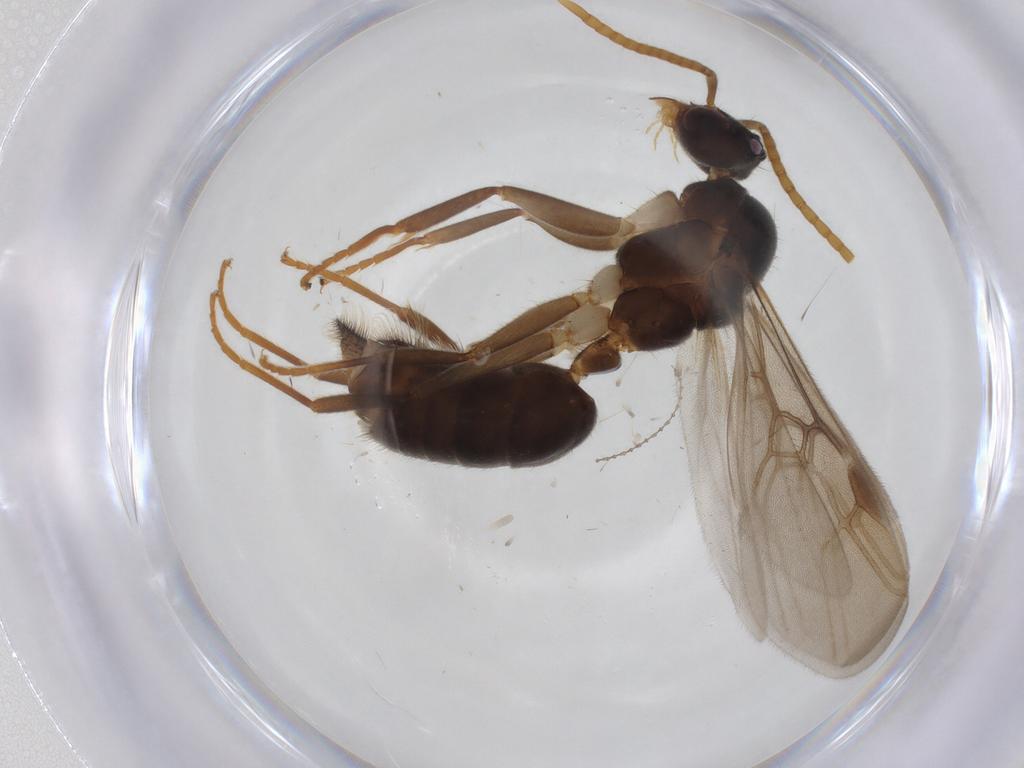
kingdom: Animalia
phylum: Arthropoda
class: Insecta
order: Hymenoptera
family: Formicidae
